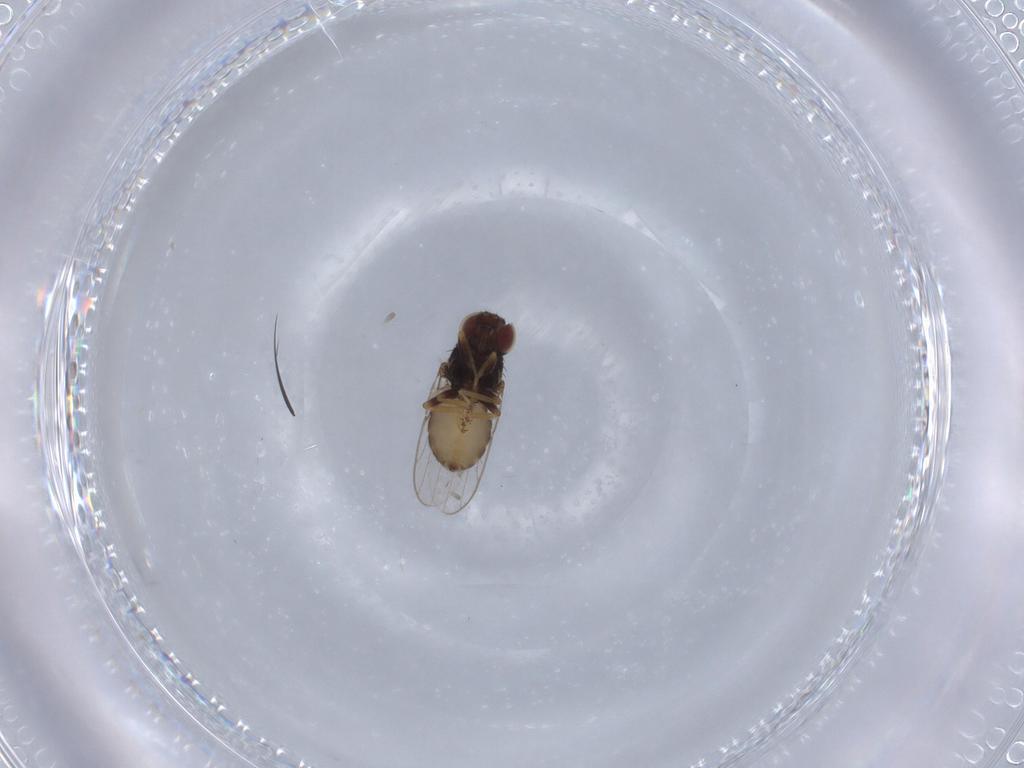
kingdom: Animalia
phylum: Arthropoda
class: Insecta
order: Diptera
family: Chloropidae
